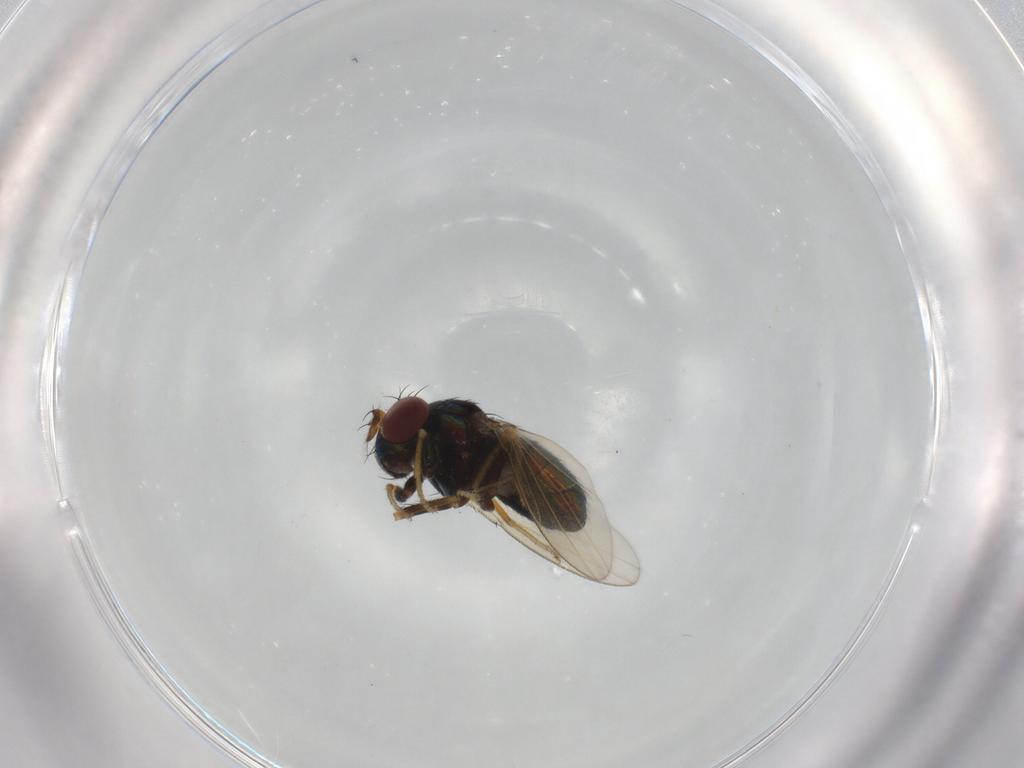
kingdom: Animalia
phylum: Arthropoda
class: Insecta
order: Diptera
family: Ephydridae
